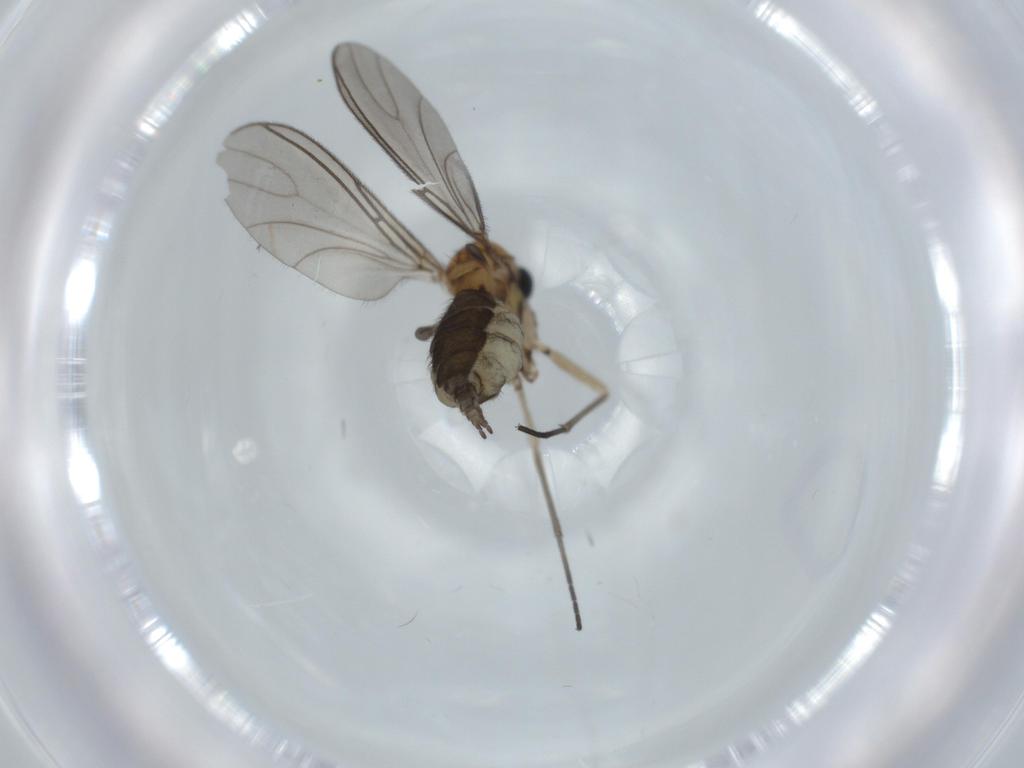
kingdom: Animalia
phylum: Arthropoda
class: Insecta
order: Diptera
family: Sciaridae
